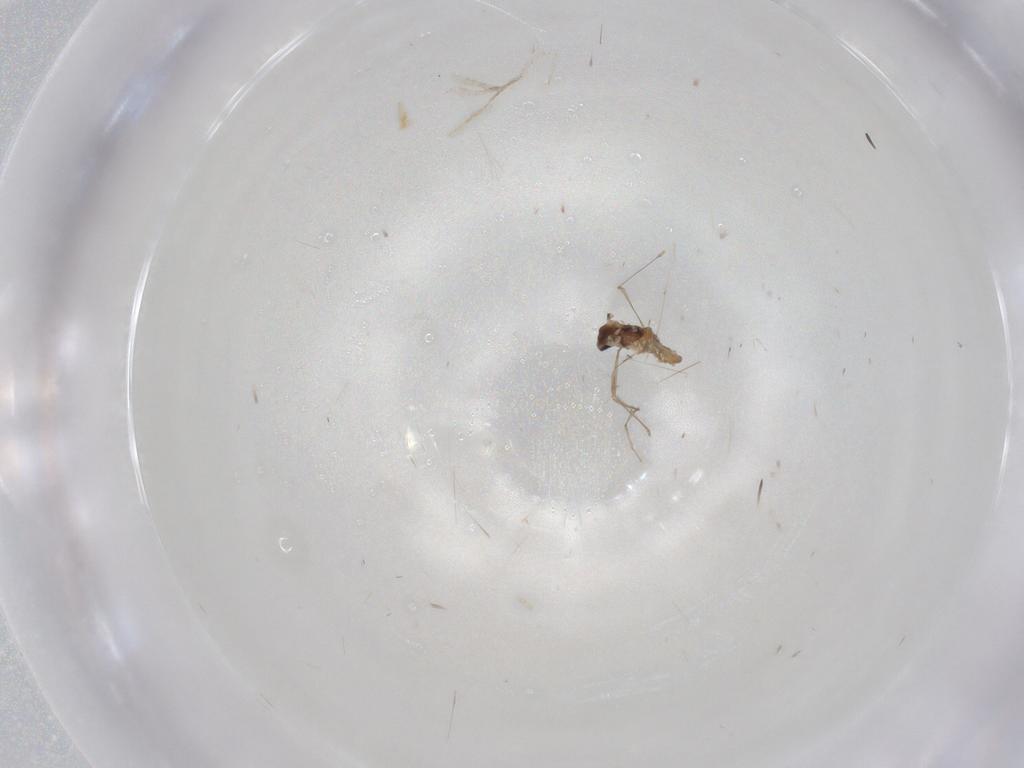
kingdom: Animalia
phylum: Arthropoda
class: Insecta
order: Diptera
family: Cecidomyiidae
